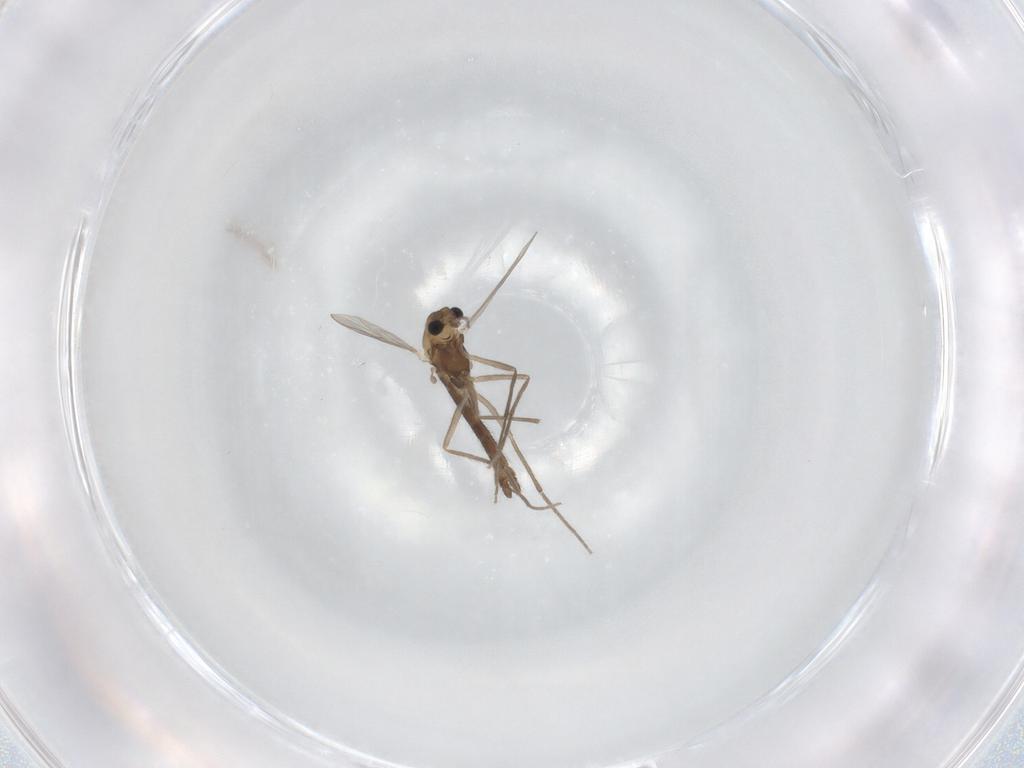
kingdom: Animalia
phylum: Arthropoda
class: Insecta
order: Diptera
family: Chironomidae
